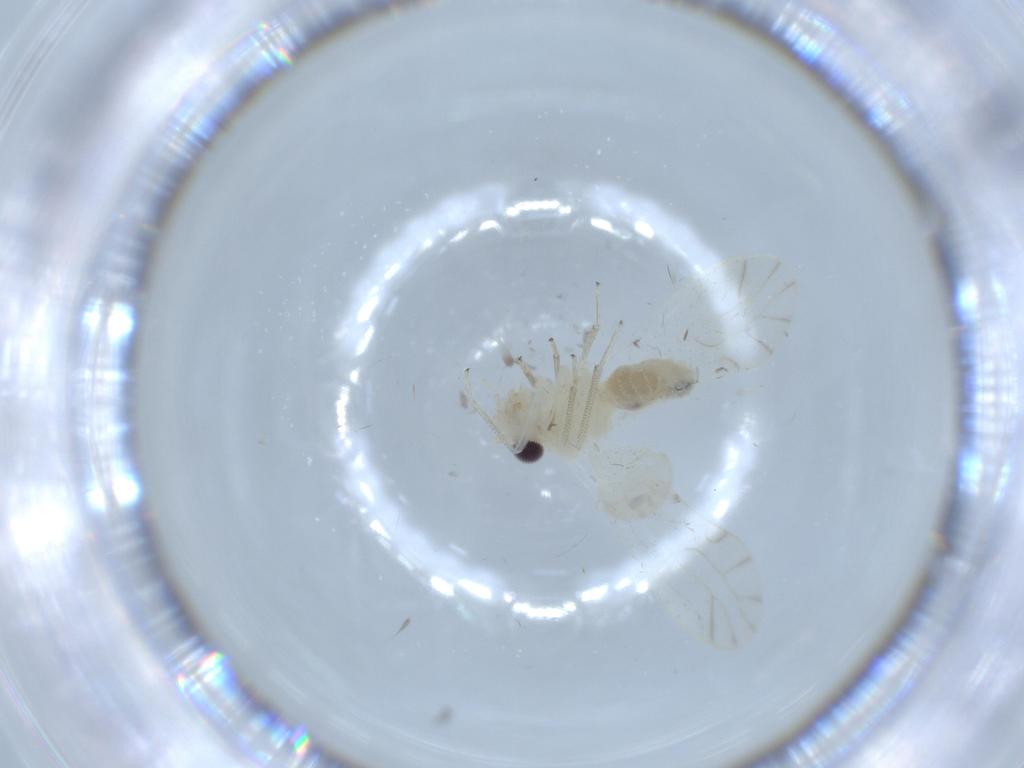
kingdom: Animalia
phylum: Arthropoda
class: Insecta
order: Psocodea
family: Caeciliusidae
